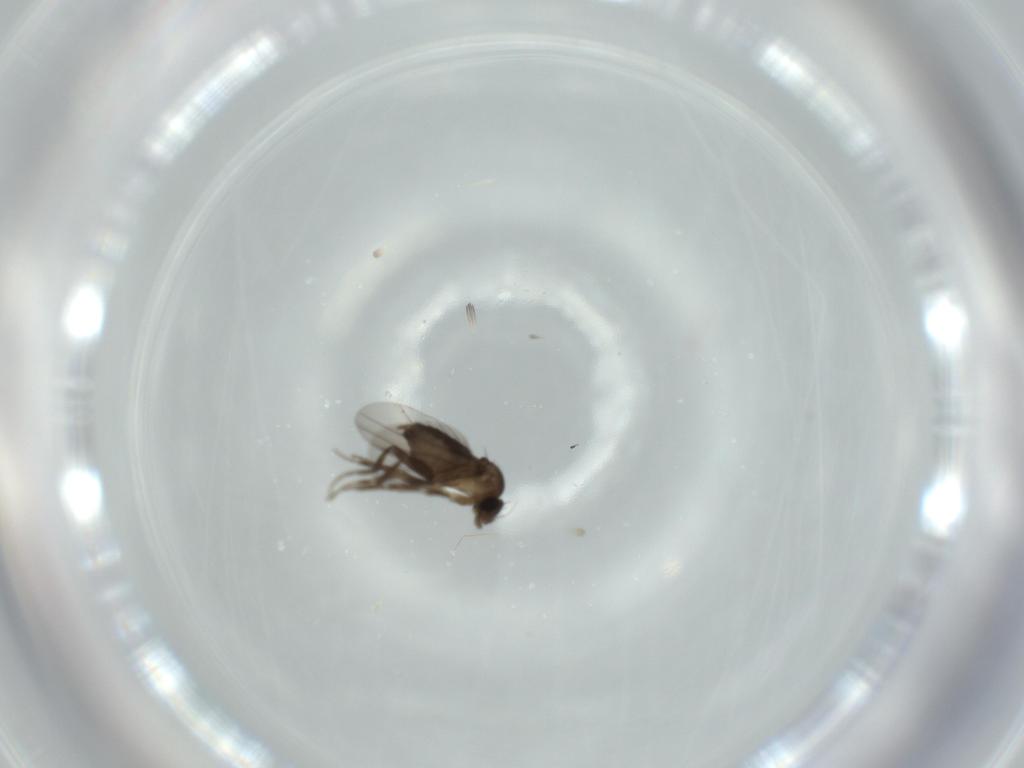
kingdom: Animalia
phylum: Arthropoda
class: Insecta
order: Diptera
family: Phoridae
